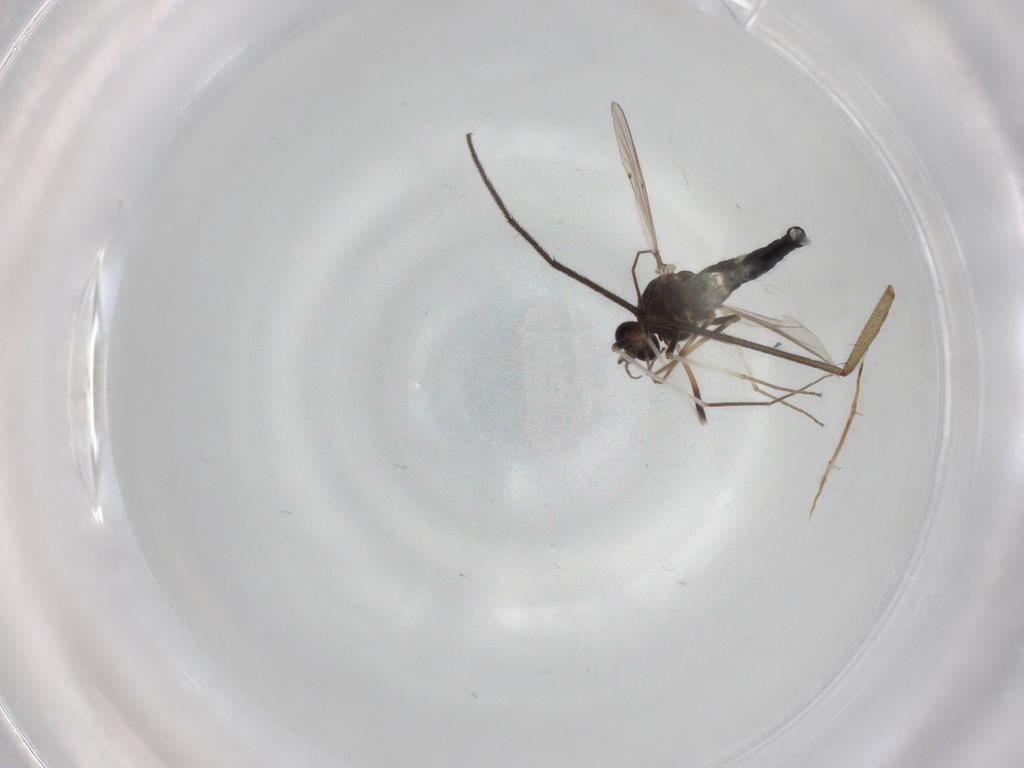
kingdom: Animalia
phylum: Arthropoda
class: Insecta
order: Diptera
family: Chironomidae
